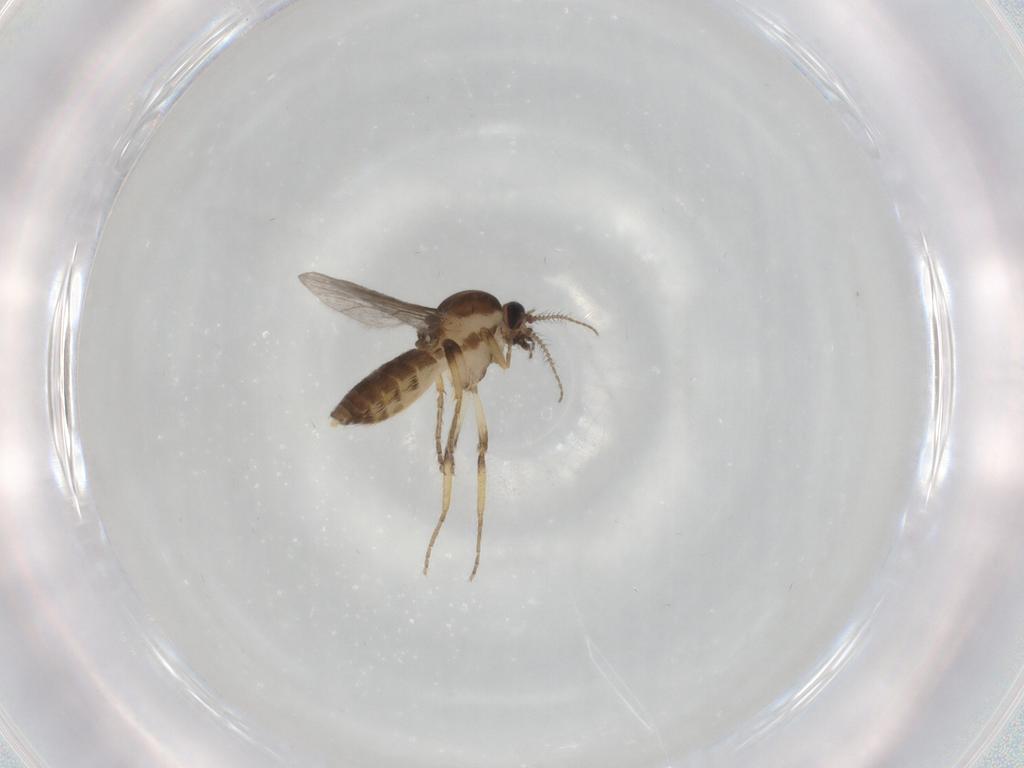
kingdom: Animalia
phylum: Arthropoda
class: Insecta
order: Diptera
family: Ceratopogonidae
